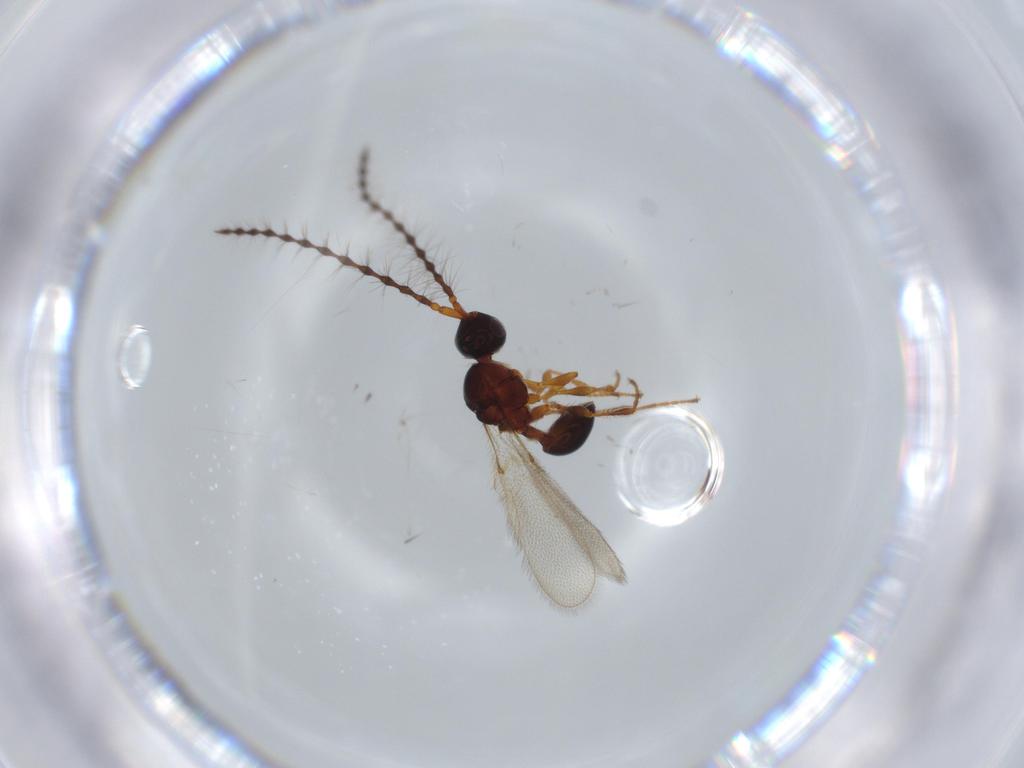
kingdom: Animalia
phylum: Arthropoda
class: Insecta
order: Hymenoptera
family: Diapriidae
